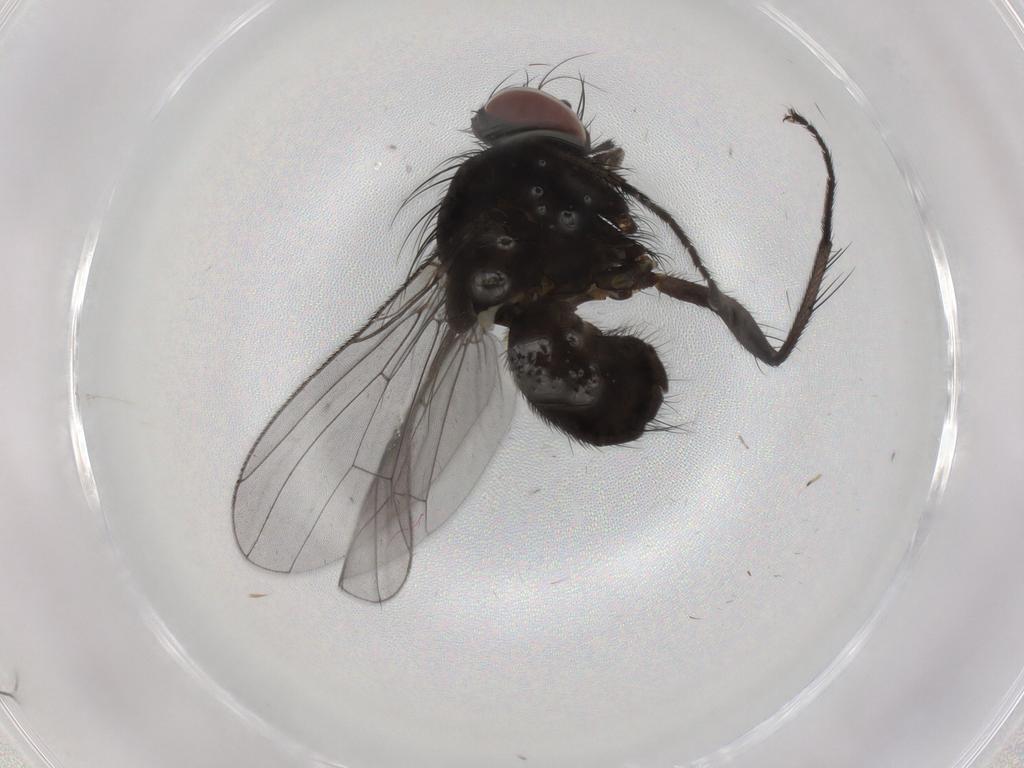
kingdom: Animalia
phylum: Arthropoda
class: Insecta
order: Diptera
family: Muscidae
